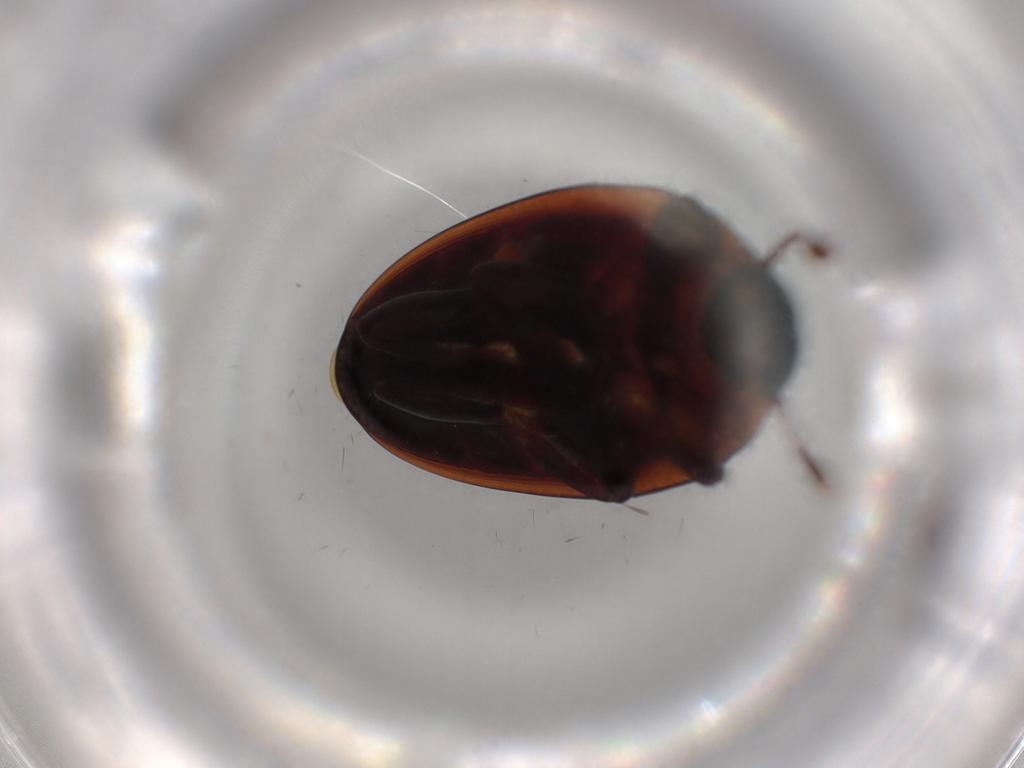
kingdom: Animalia
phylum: Arthropoda
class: Insecta
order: Coleoptera
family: Zopheridae
